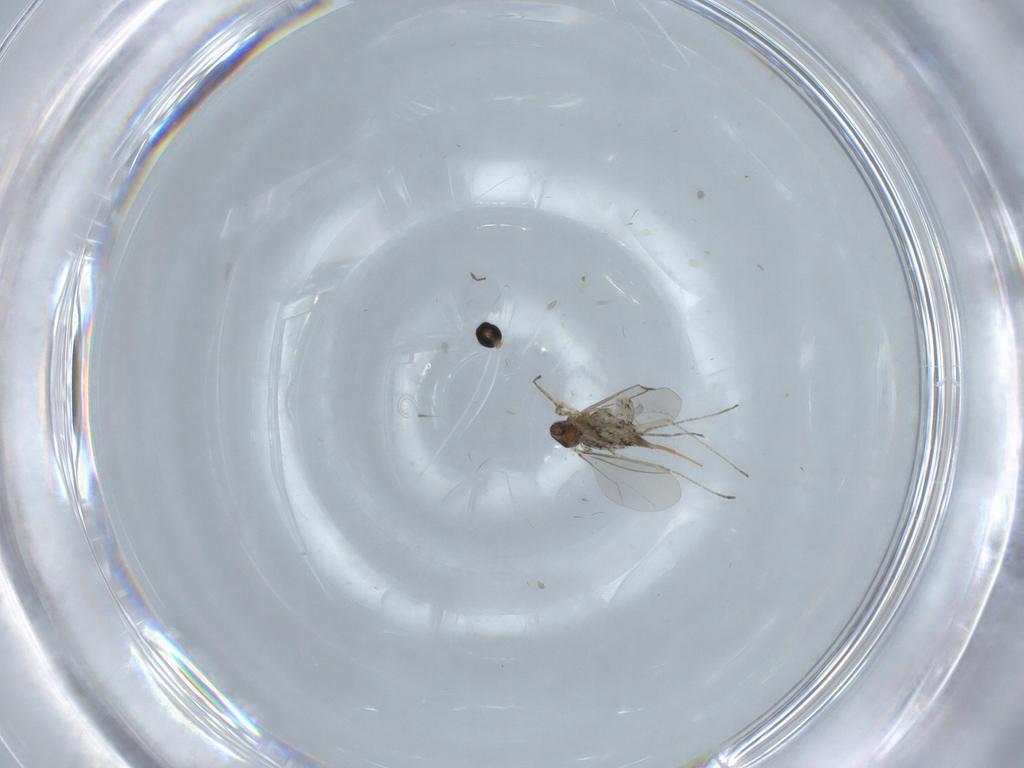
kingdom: Animalia
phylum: Arthropoda
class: Insecta
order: Diptera
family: Cecidomyiidae
